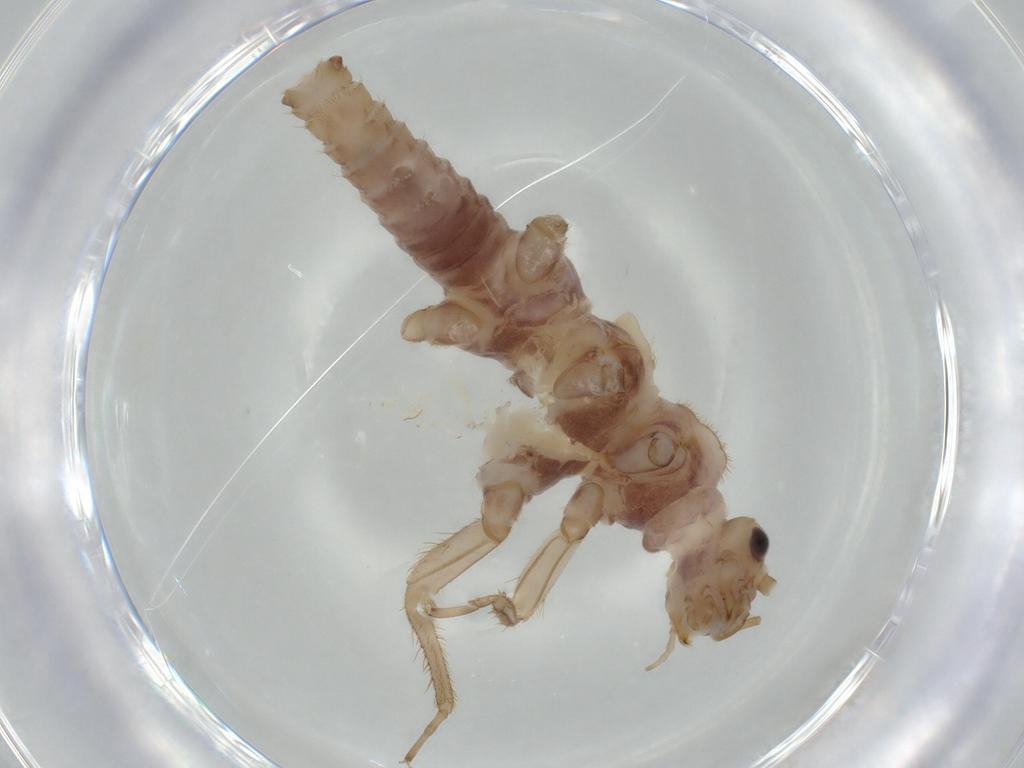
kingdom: Animalia
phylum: Arthropoda
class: Insecta
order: Plecoptera
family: Nemouridae
